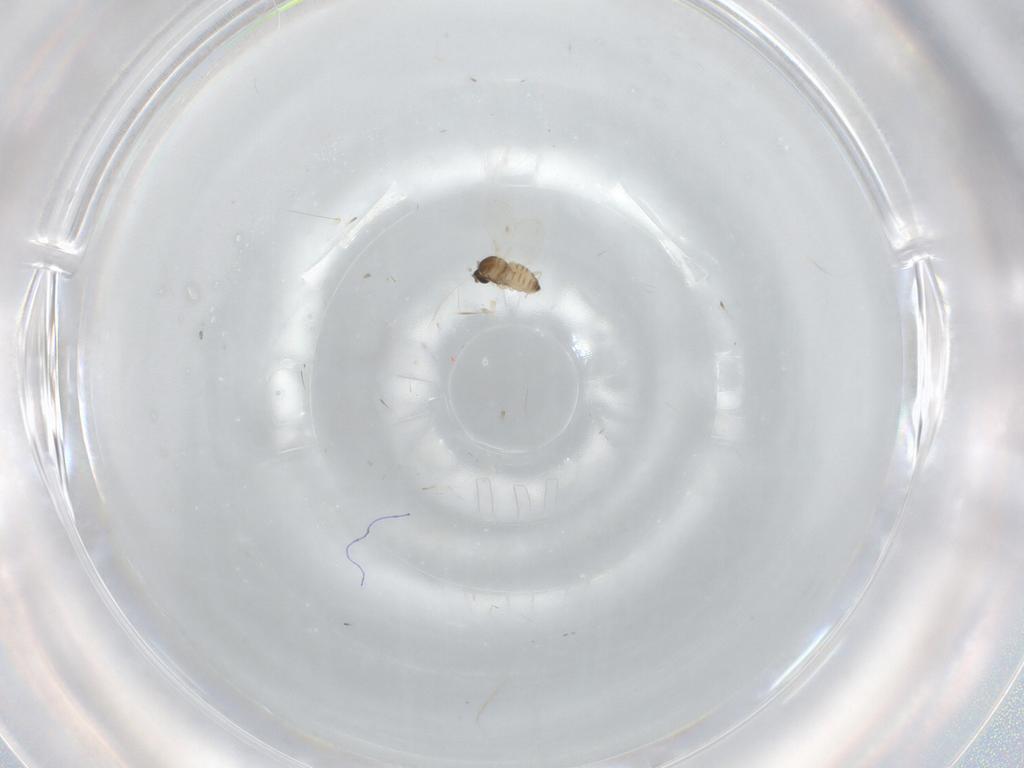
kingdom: Animalia
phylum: Arthropoda
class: Insecta
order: Diptera
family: Cecidomyiidae
